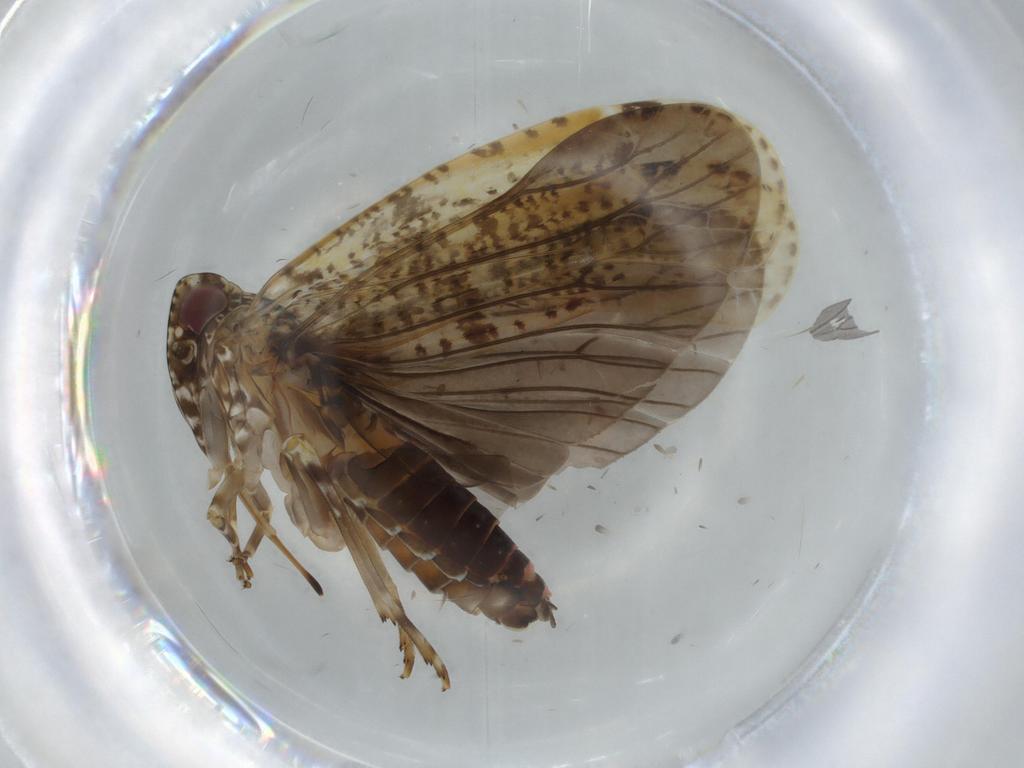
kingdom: Animalia
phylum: Arthropoda
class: Insecta
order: Hemiptera
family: Achilidae
